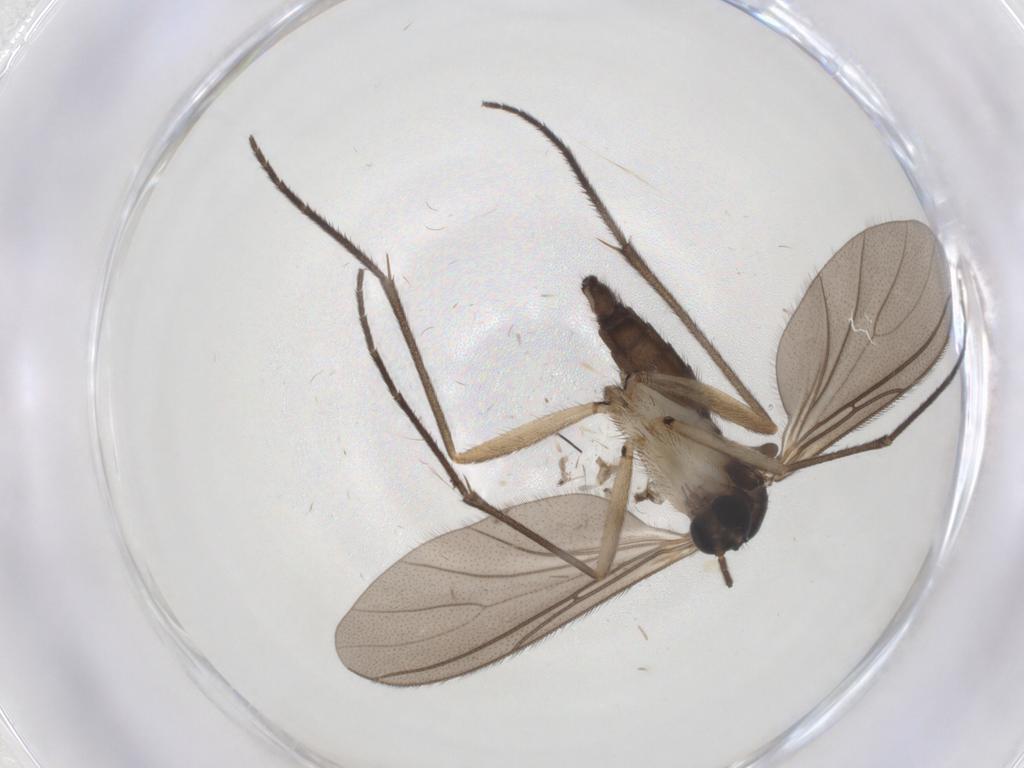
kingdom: Animalia
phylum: Arthropoda
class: Insecta
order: Diptera
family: Sciaridae
